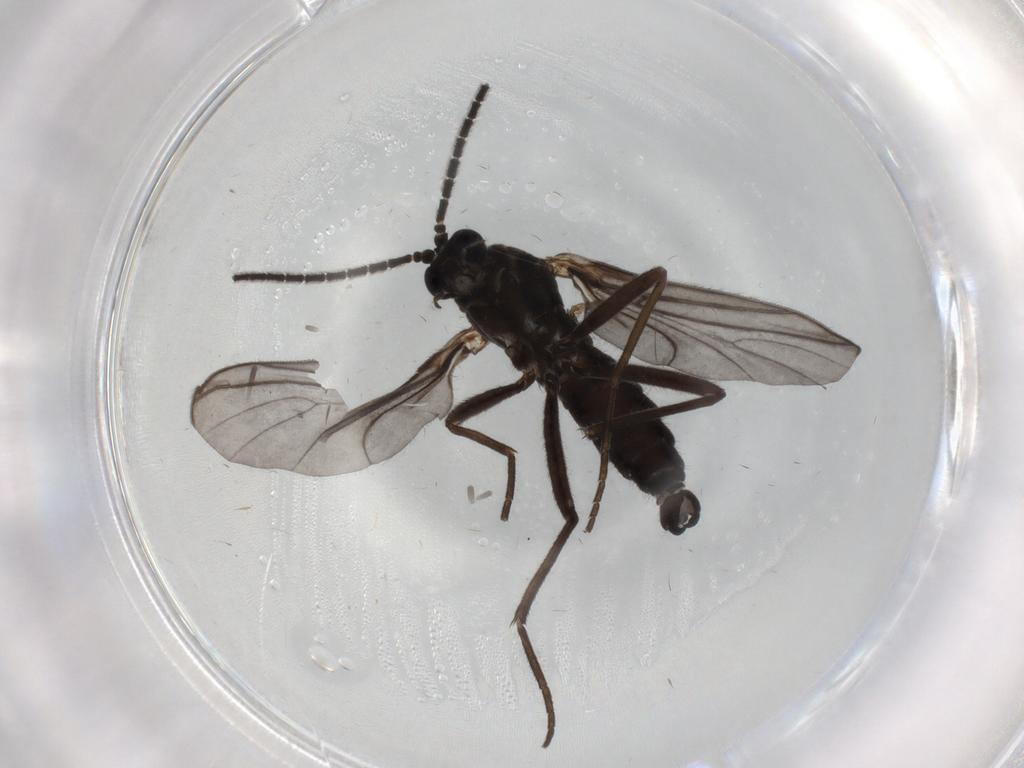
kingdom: Animalia
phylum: Arthropoda
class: Insecta
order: Diptera
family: Sciaridae
